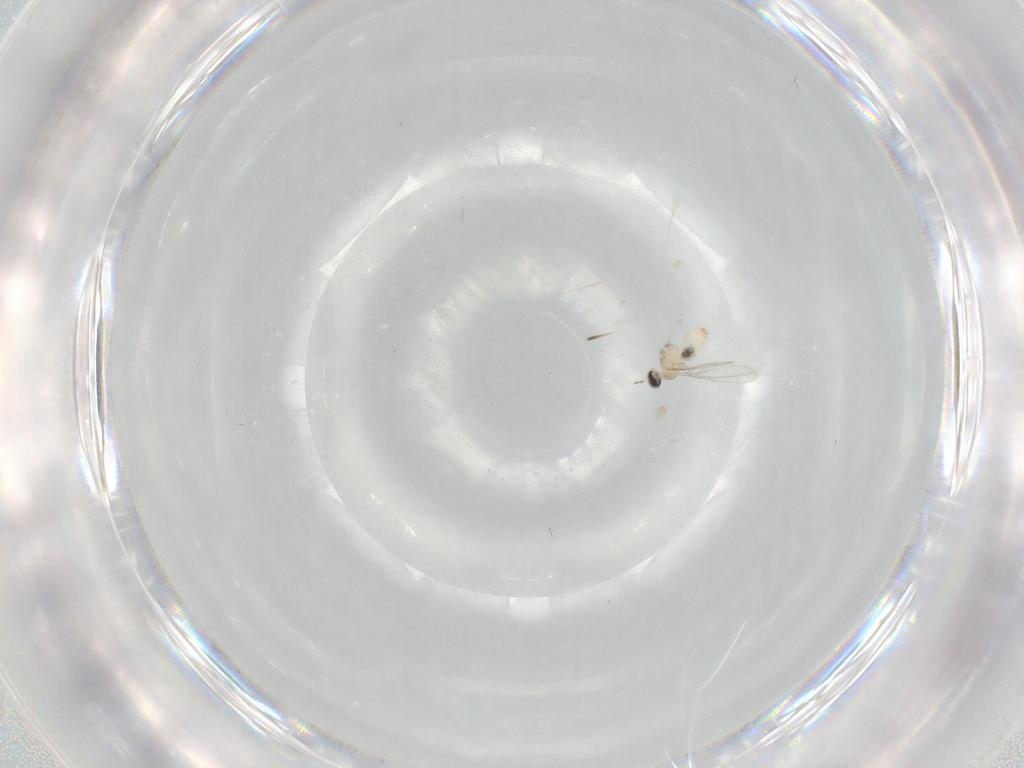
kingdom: Animalia
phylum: Arthropoda
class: Insecta
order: Diptera
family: Cecidomyiidae
